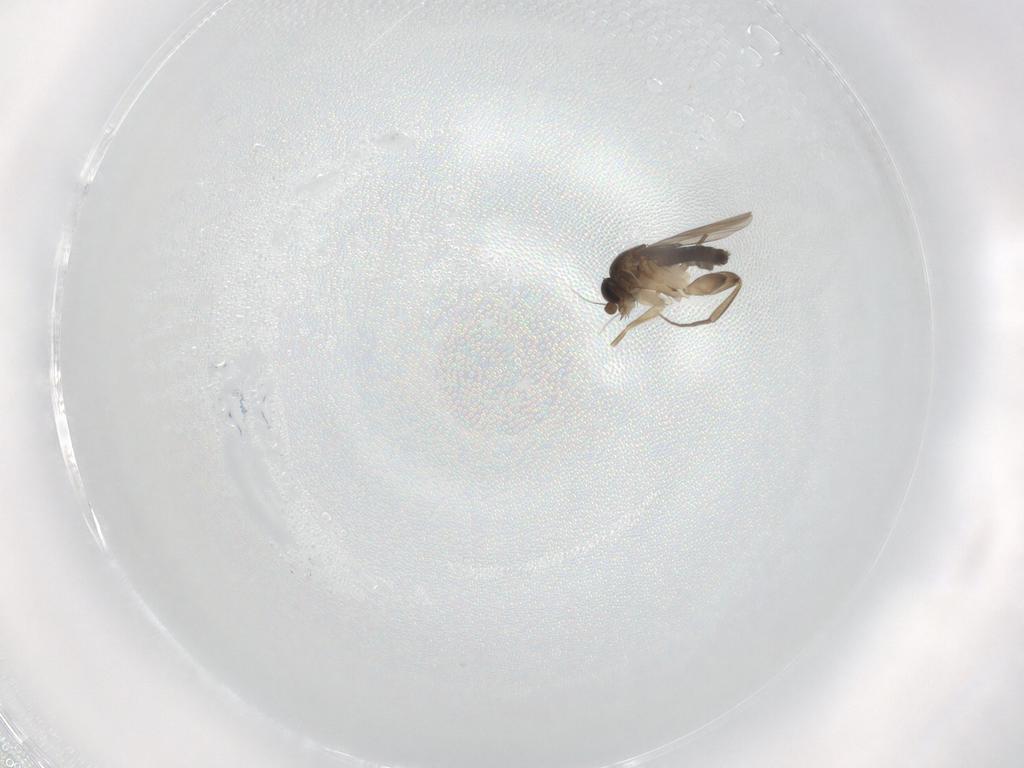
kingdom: Animalia
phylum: Arthropoda
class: Insecta
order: Diptera
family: Phoridae
